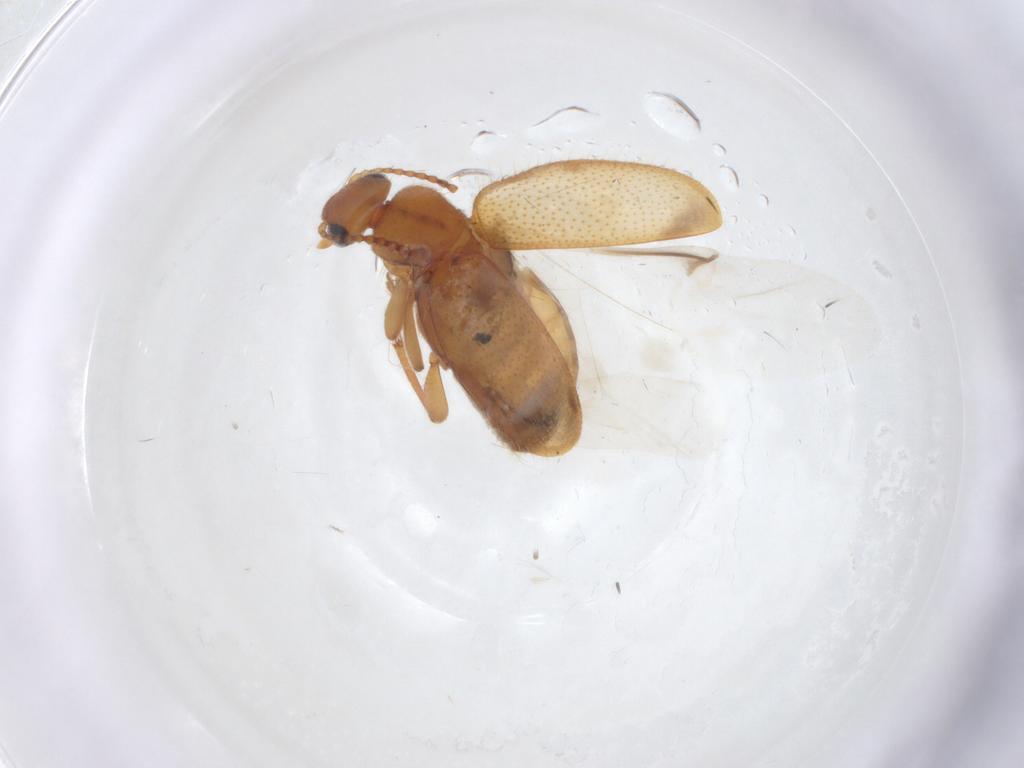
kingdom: Animalia
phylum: Arthropoda
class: Insecta
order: Coleoptera
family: Anthicidae
